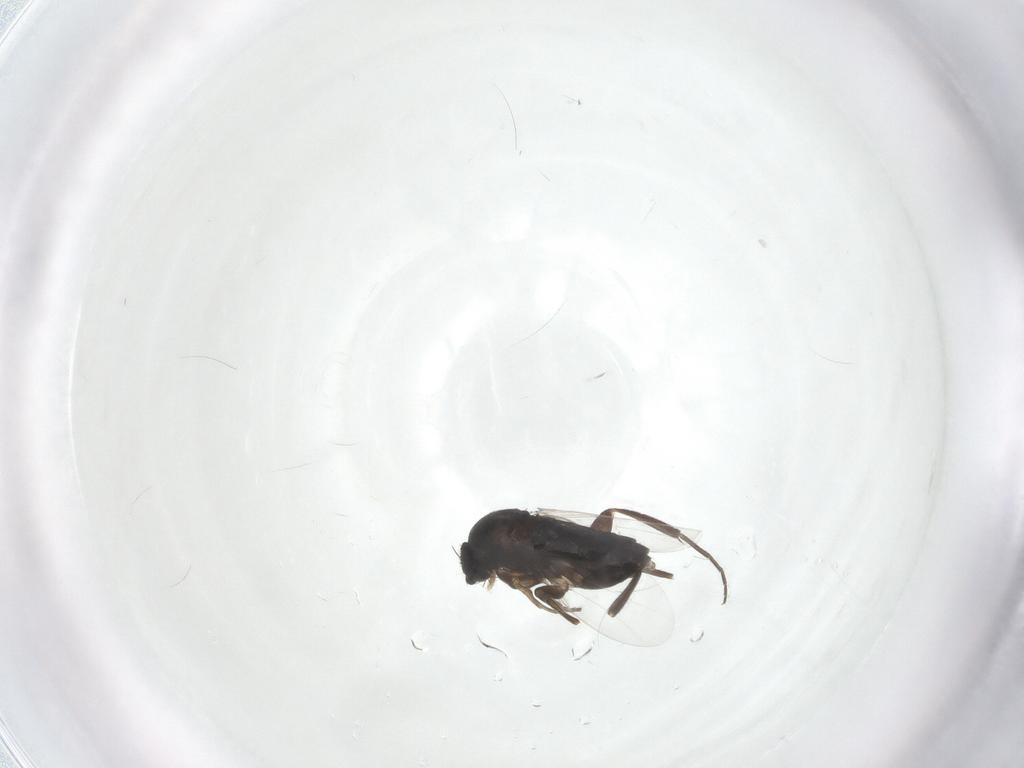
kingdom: Animalia
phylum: Arthropoda
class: Insecta
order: Diptera
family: Phoridae
